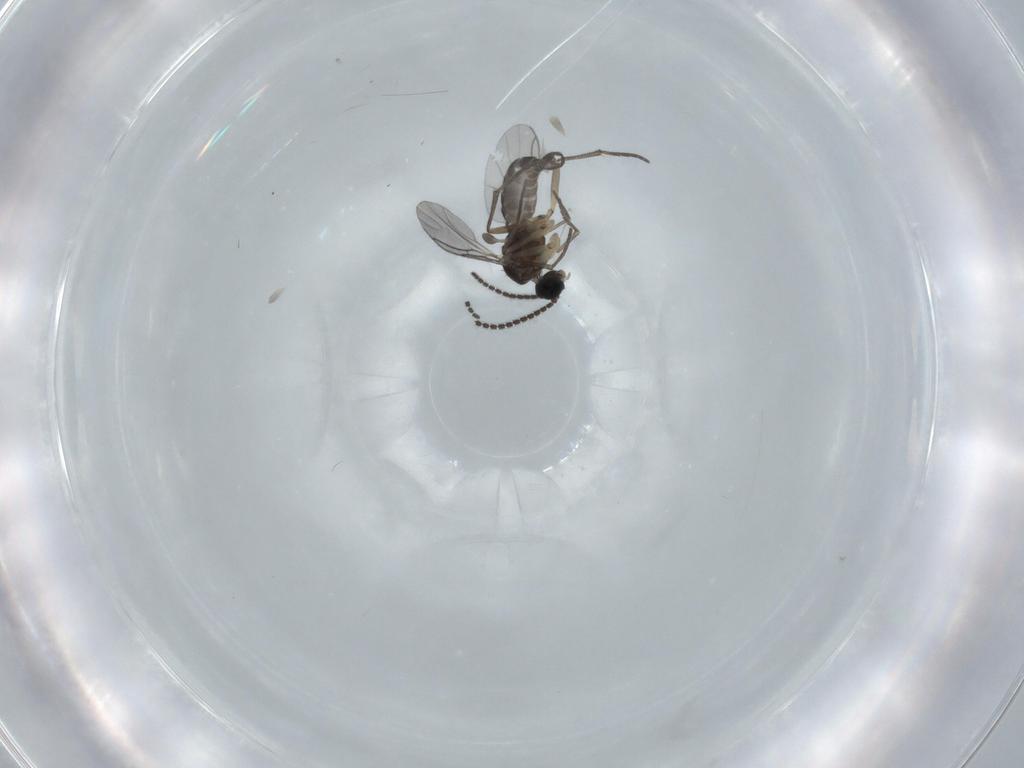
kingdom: Animalia
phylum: Arthropoda
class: Insecta
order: Diptera
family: Sciaridae
